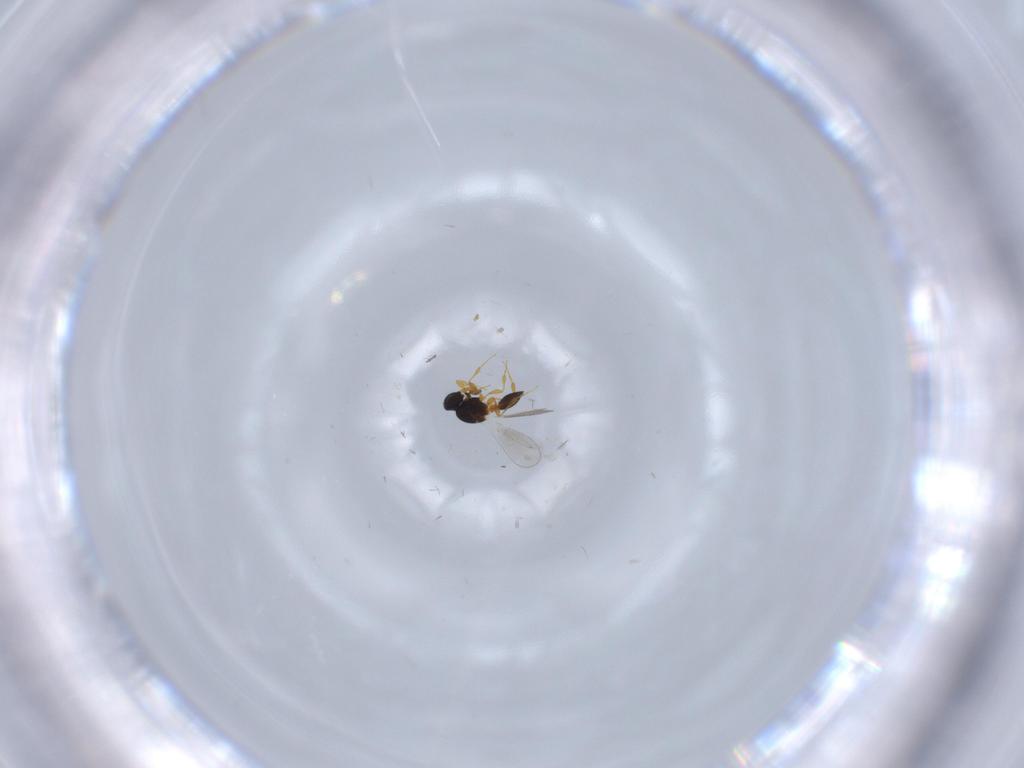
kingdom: Animalia
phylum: Arthropoda
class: Insecta
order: Hymenoptera
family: Platygastridae
